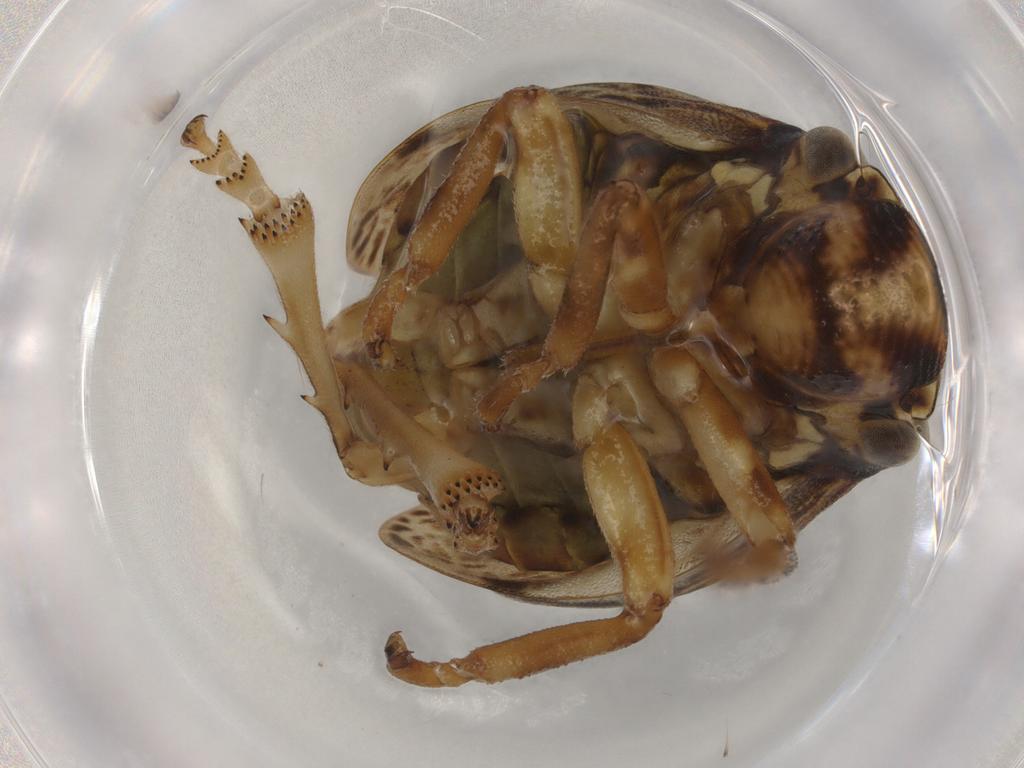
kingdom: Animalia
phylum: Arthropoda
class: Insecta
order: Hemiptera
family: Aphrophoridae
